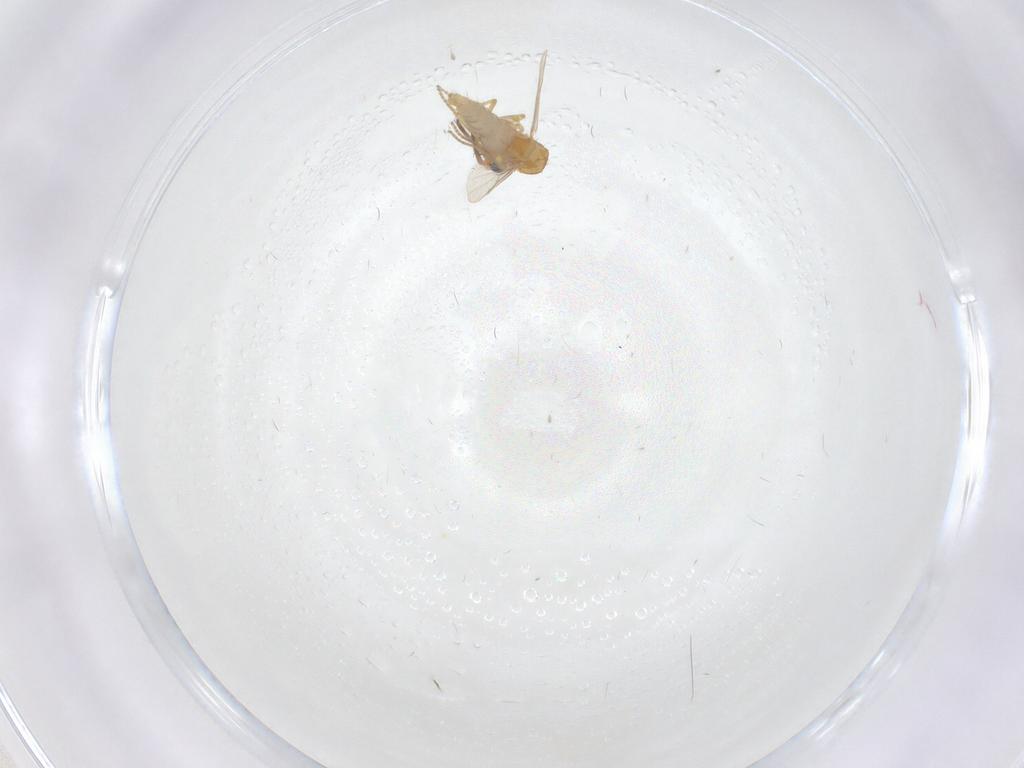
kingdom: Animalia
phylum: Arthropoda
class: Insecta
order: Diptera
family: Ceratopogonidae
